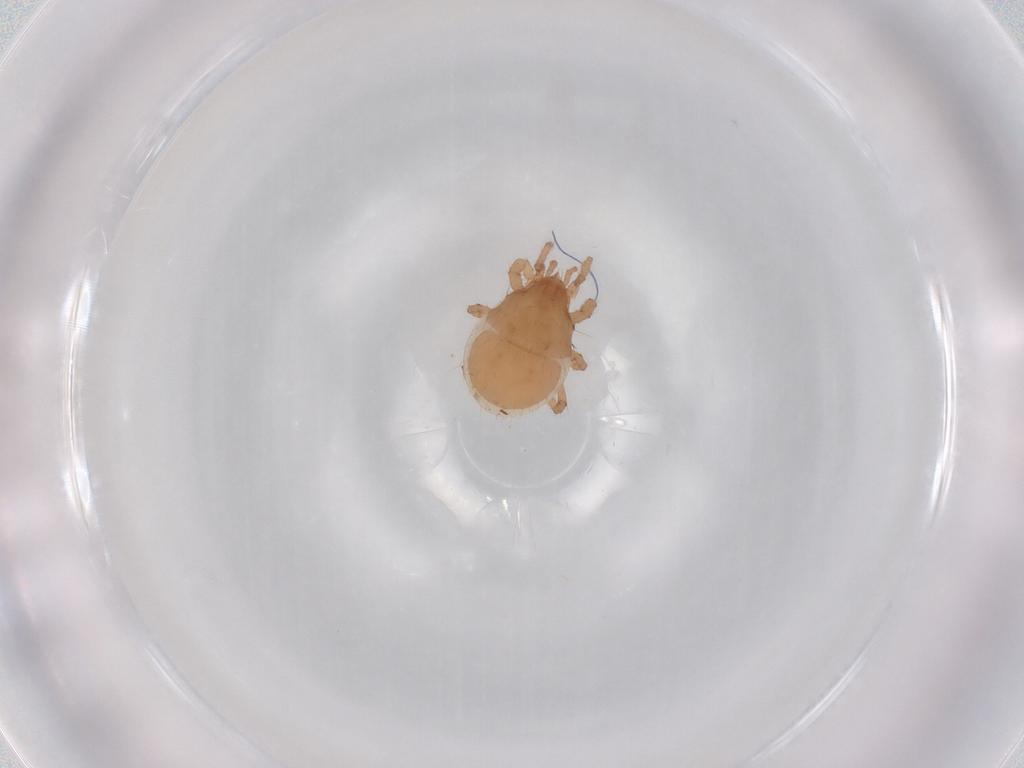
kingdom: Animalia
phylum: Arthropoda
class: Arachnida
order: Mesostigmata
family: Parasitidae
